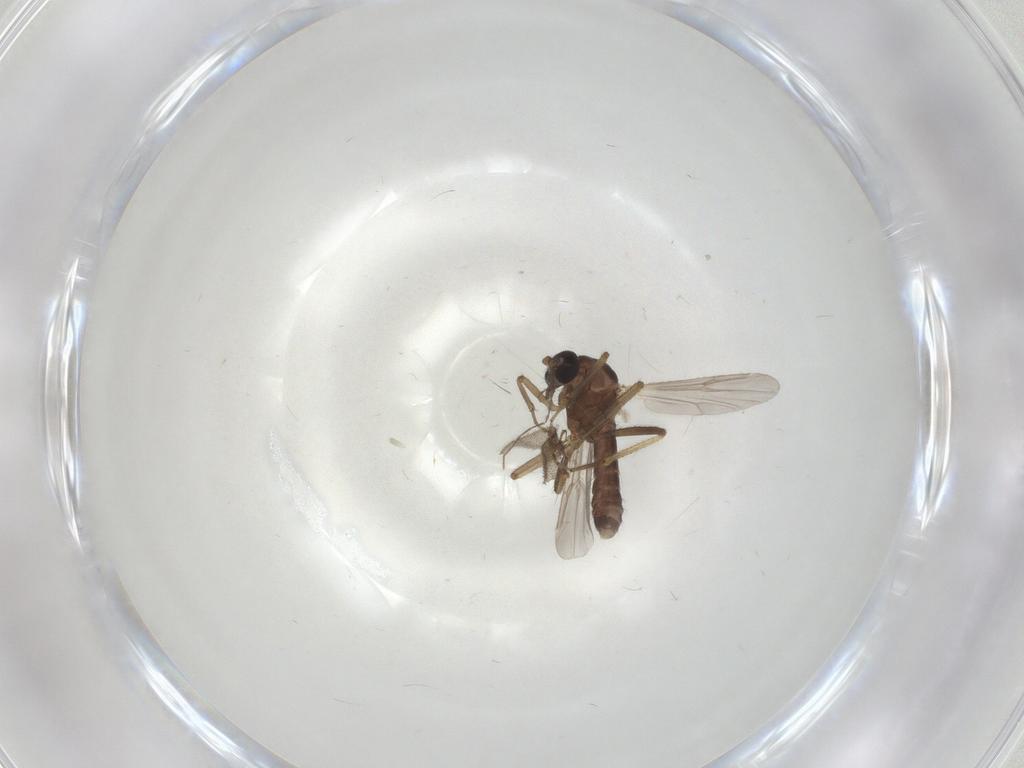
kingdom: Animalia
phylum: Arthropoda
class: Insecta
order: Diptera
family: Ceratopogonidae
